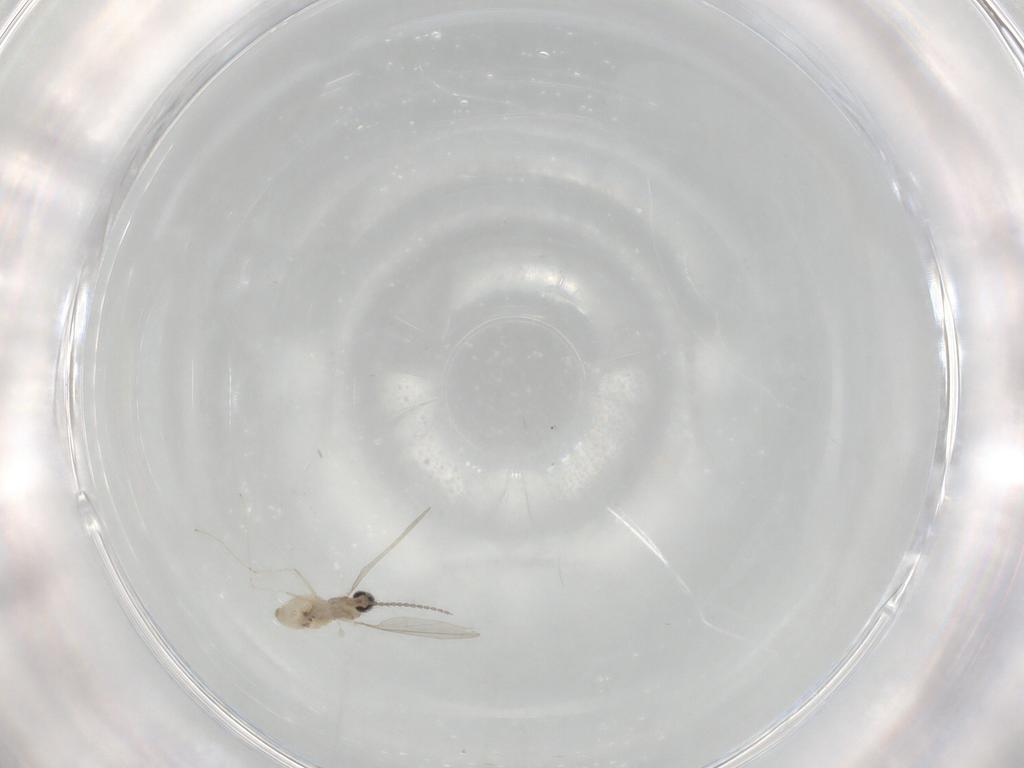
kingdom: Animalia
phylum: Arthropoda
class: Insecta
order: Diptera
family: Cecidomyiidae
